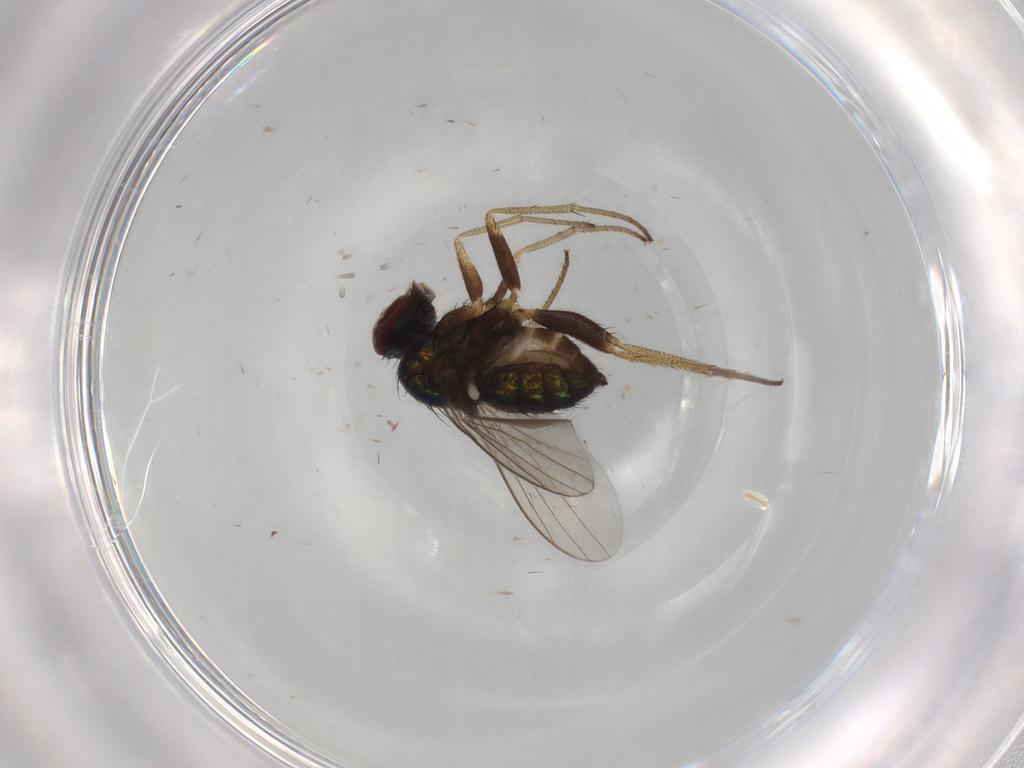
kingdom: Animalia
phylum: Arthropoda
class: Insecta
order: Diptera
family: Dolichopodidae
